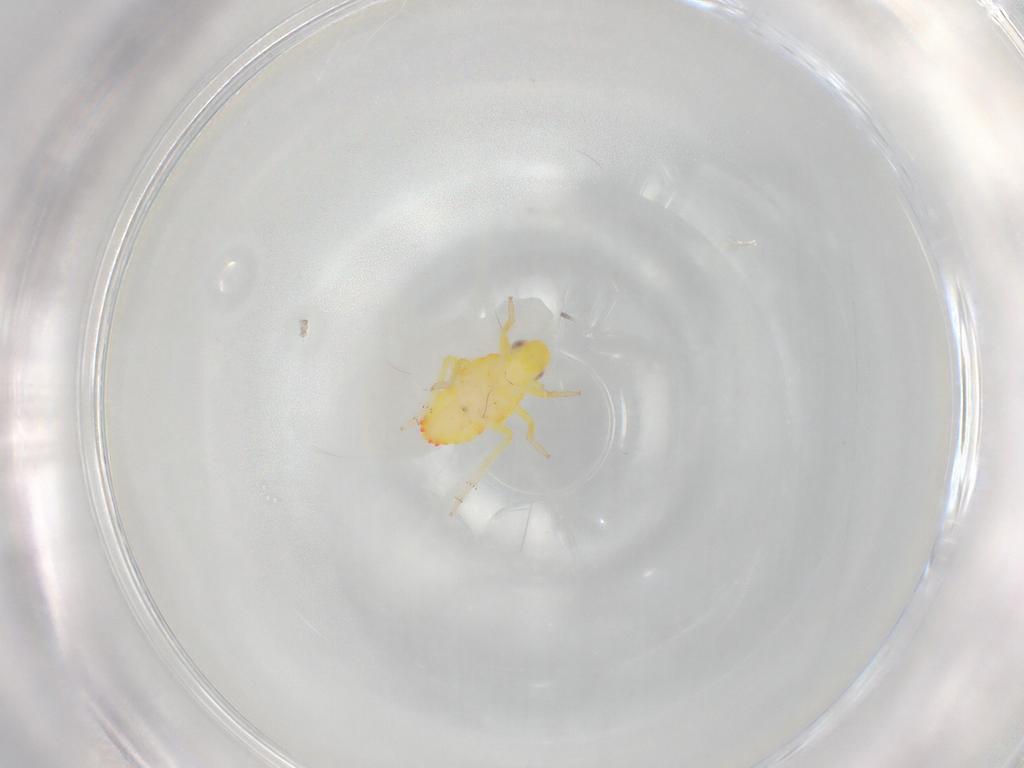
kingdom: Animalia
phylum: Arthropoda
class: Insecta
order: Hemiptera
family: Tropiduchidae
